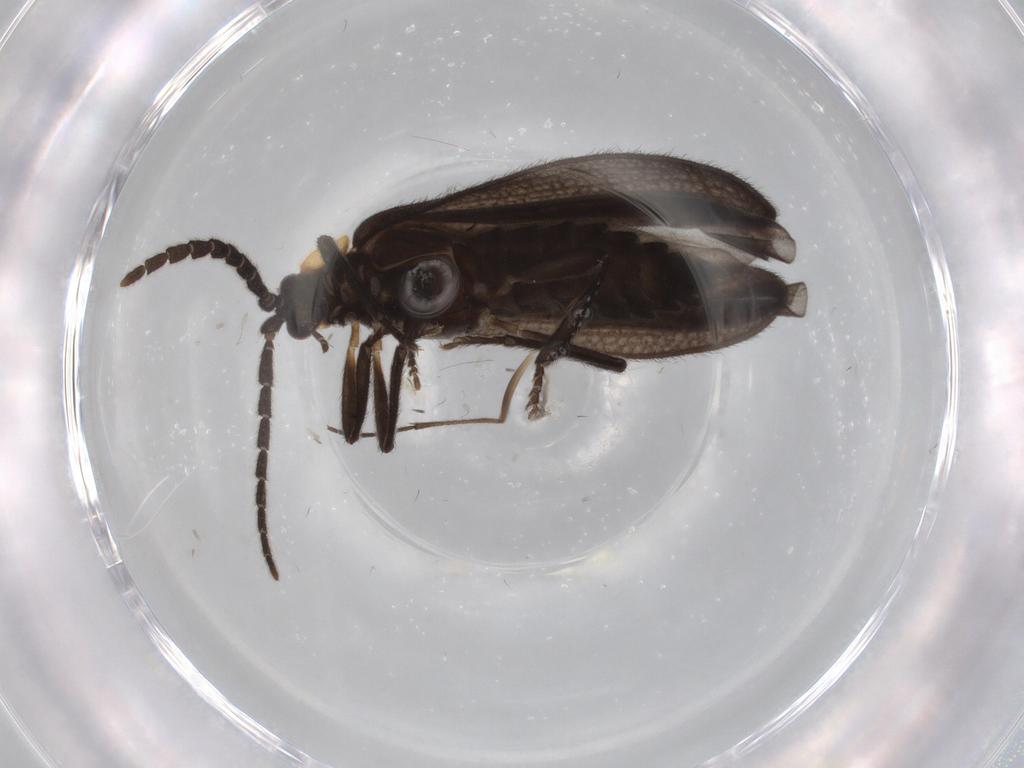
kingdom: Animalia
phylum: Arthropoda
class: Insecta
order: Coleoptera
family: Lycidae
